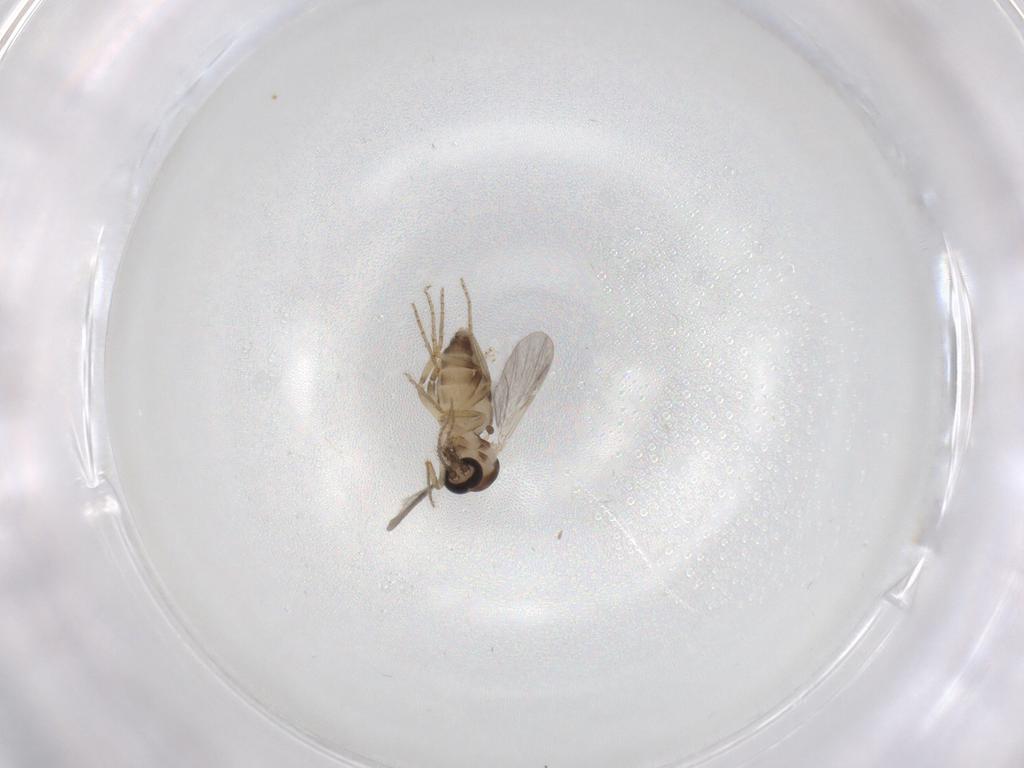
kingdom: Animalia
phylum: Arthropoda
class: Insecta
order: Diptera
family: Ceratopogonidae
